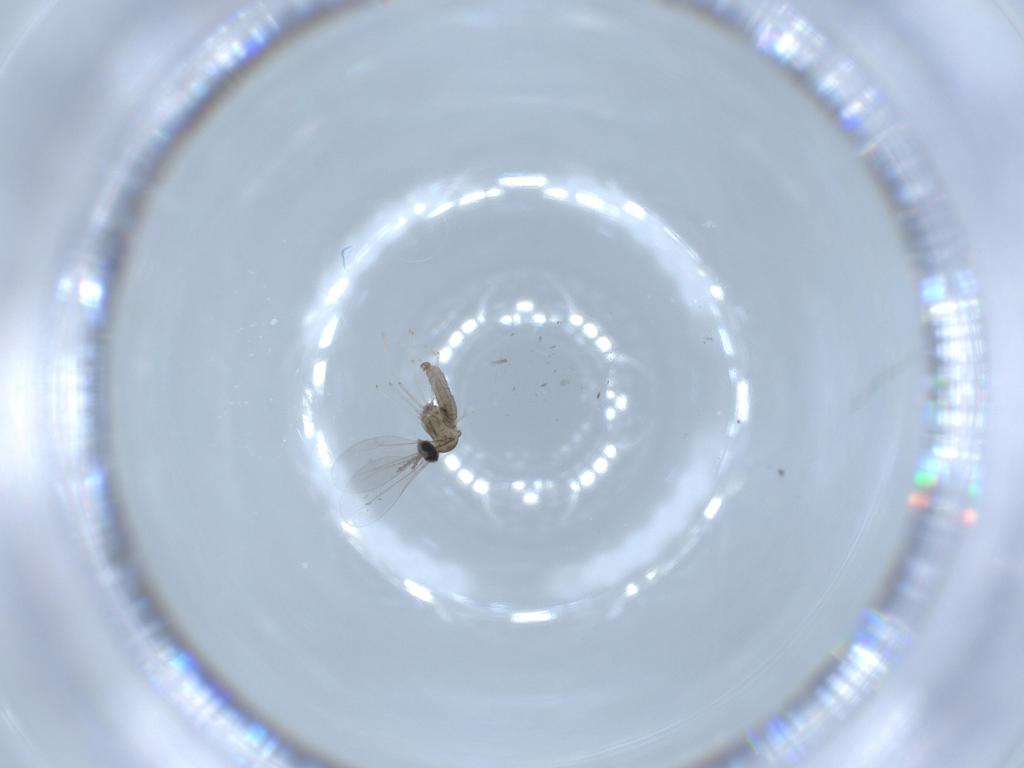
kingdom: Animalia
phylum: Arthropoda
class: Insecta
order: Diptera
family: Cecidomyiidae
